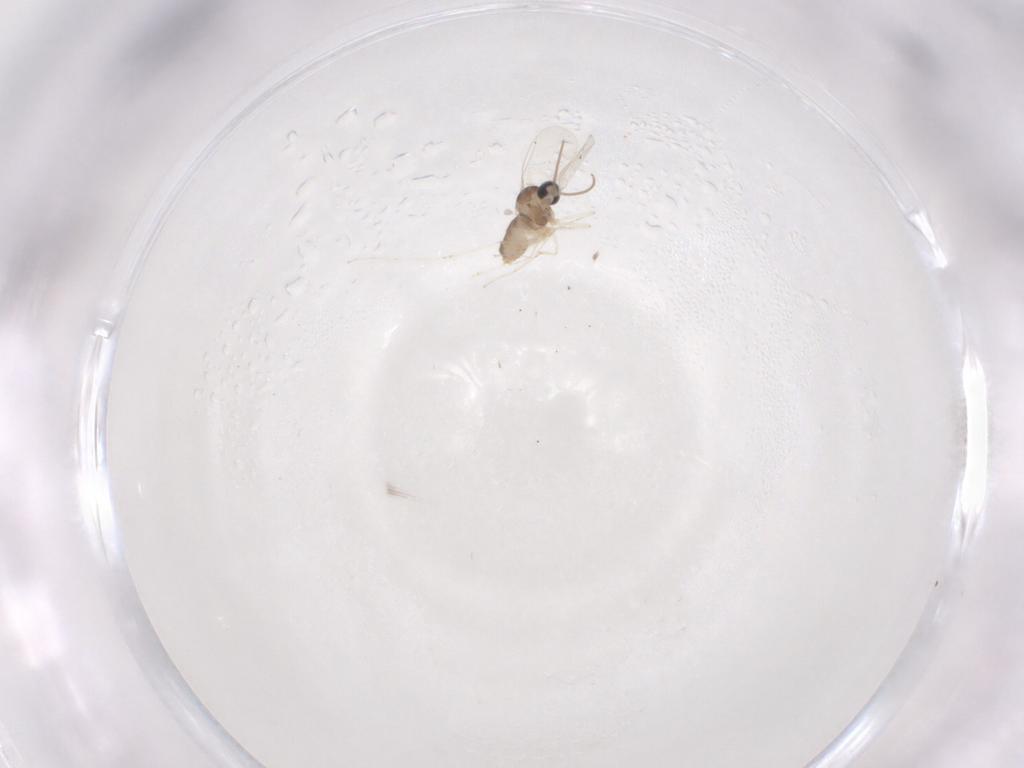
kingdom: Animalia
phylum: Arthropoda
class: Insecta
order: Diptera
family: Cecidomyiidae
